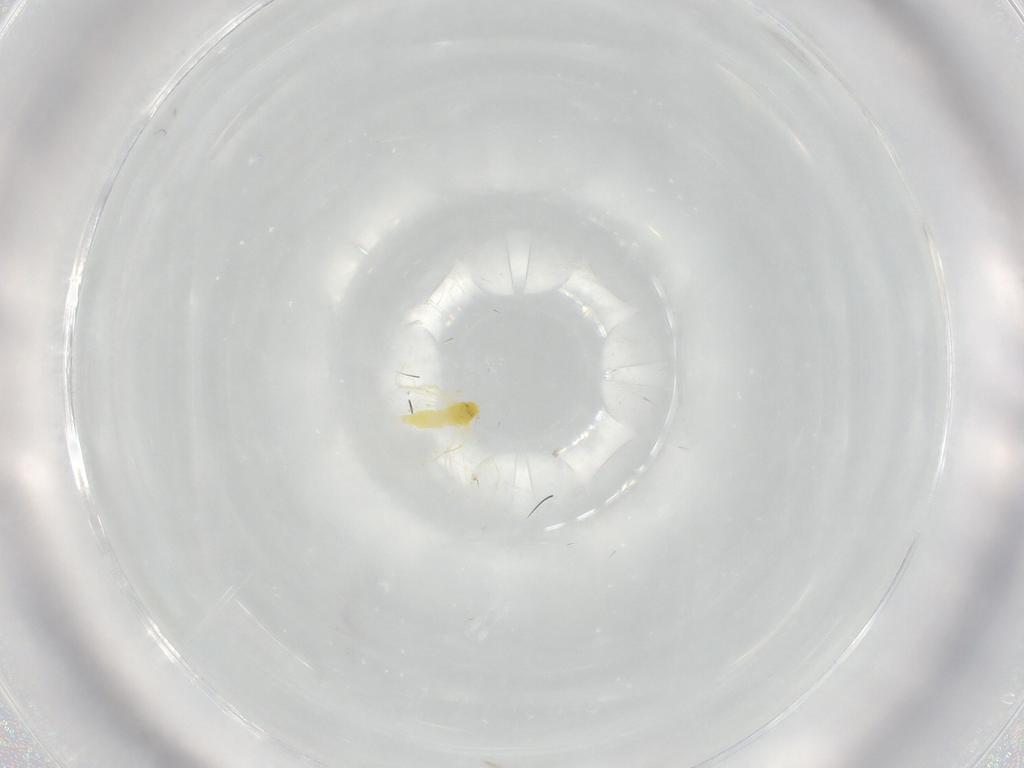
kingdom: Animalia
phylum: Arthropoda
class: Insecta
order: Hemiptera
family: Aleyrodidae
